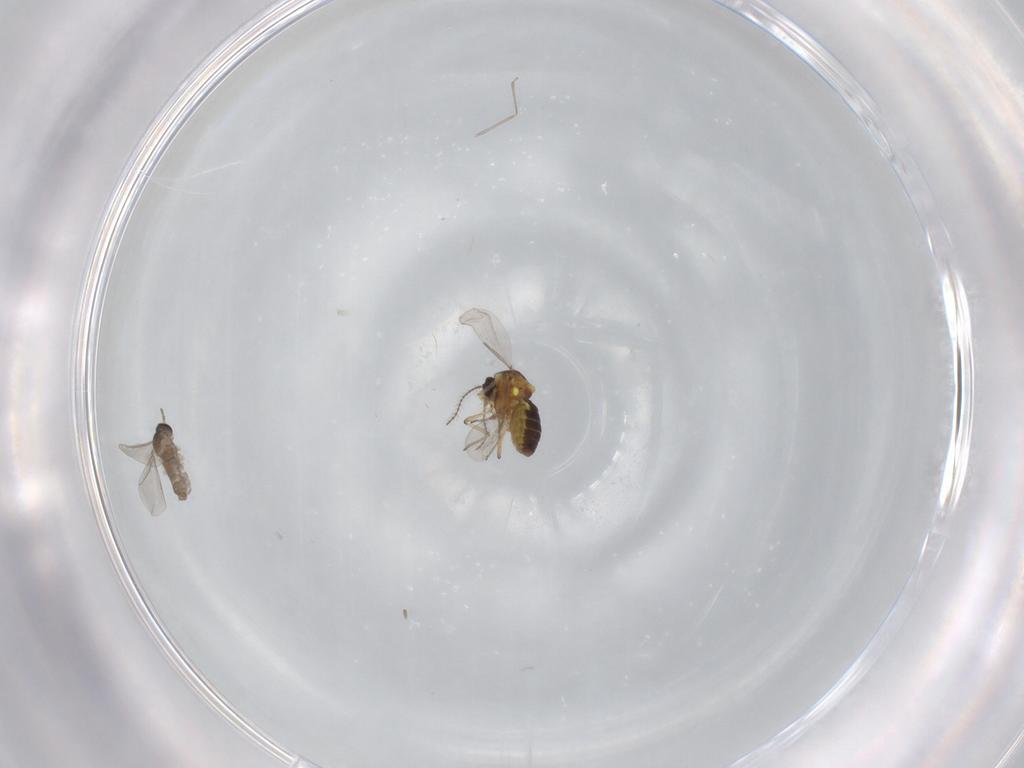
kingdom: Animalia
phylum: Arthropoda
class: Insecta
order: Diptera
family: Cecidomyiidae
